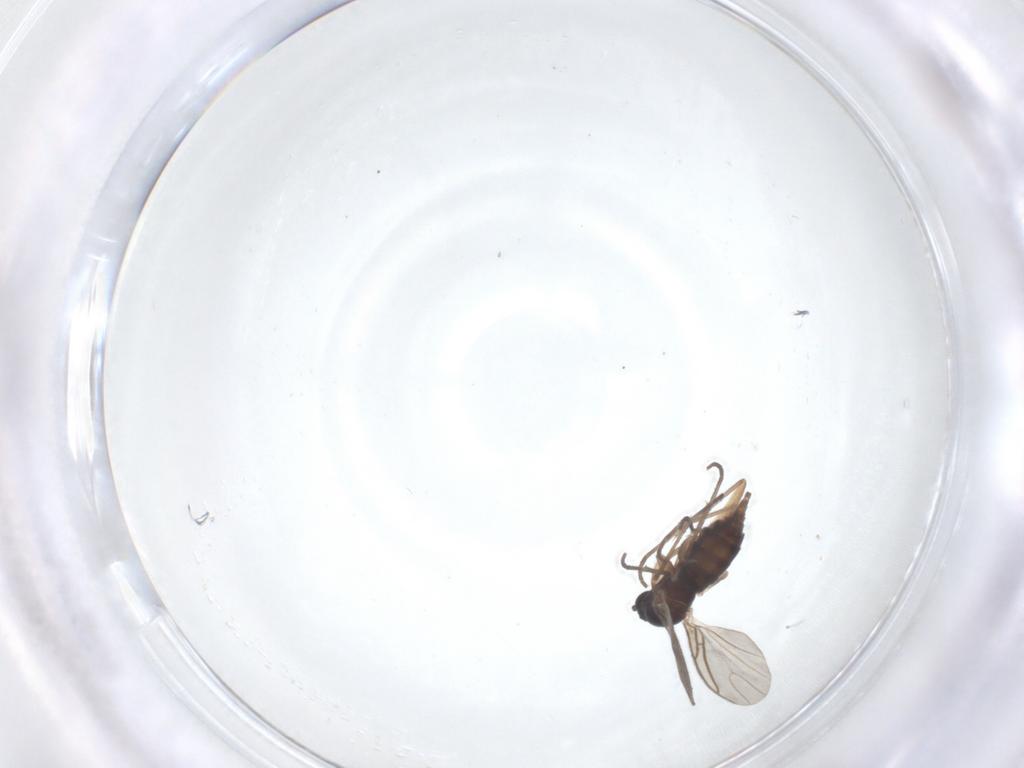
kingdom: Animalia
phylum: Arthropoda
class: Insecta
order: Diptera
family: Sciaridae
